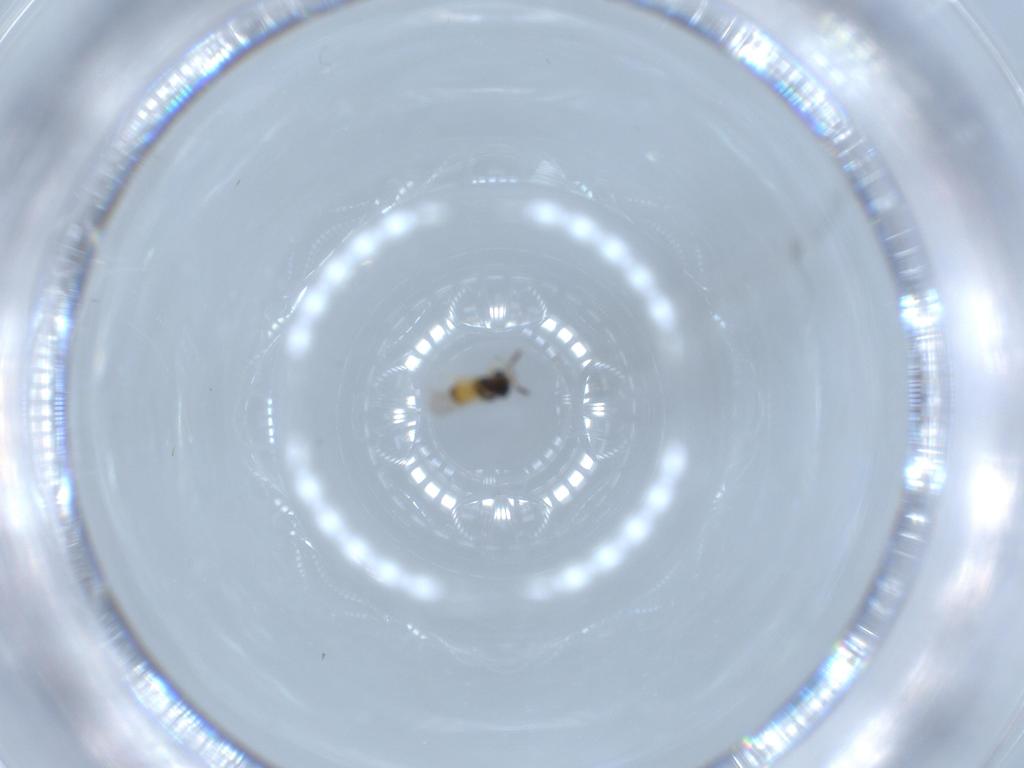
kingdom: Animalia
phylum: Arthropoda
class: Insecta
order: Hymenoptera
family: Scelionidae
